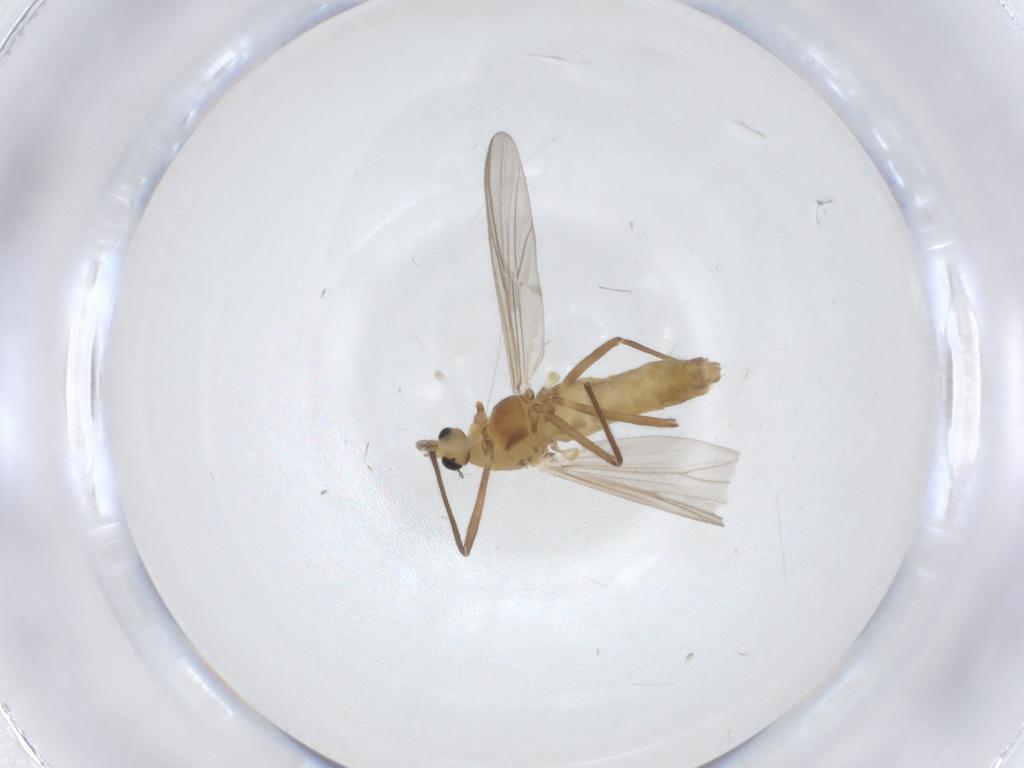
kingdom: Animalia
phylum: Arthropoda
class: Insecta
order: Diptera
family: Chironomidae
